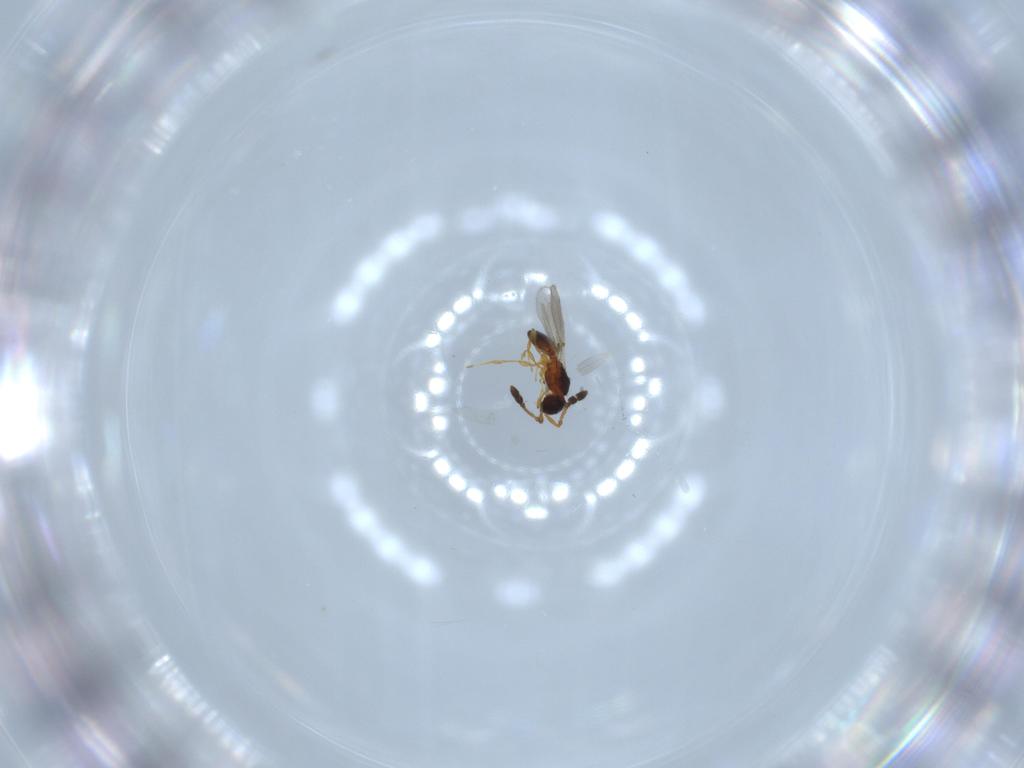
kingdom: Animalia
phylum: Arthropoda
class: Insecta
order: Hymenoptera
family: Diapriidae
